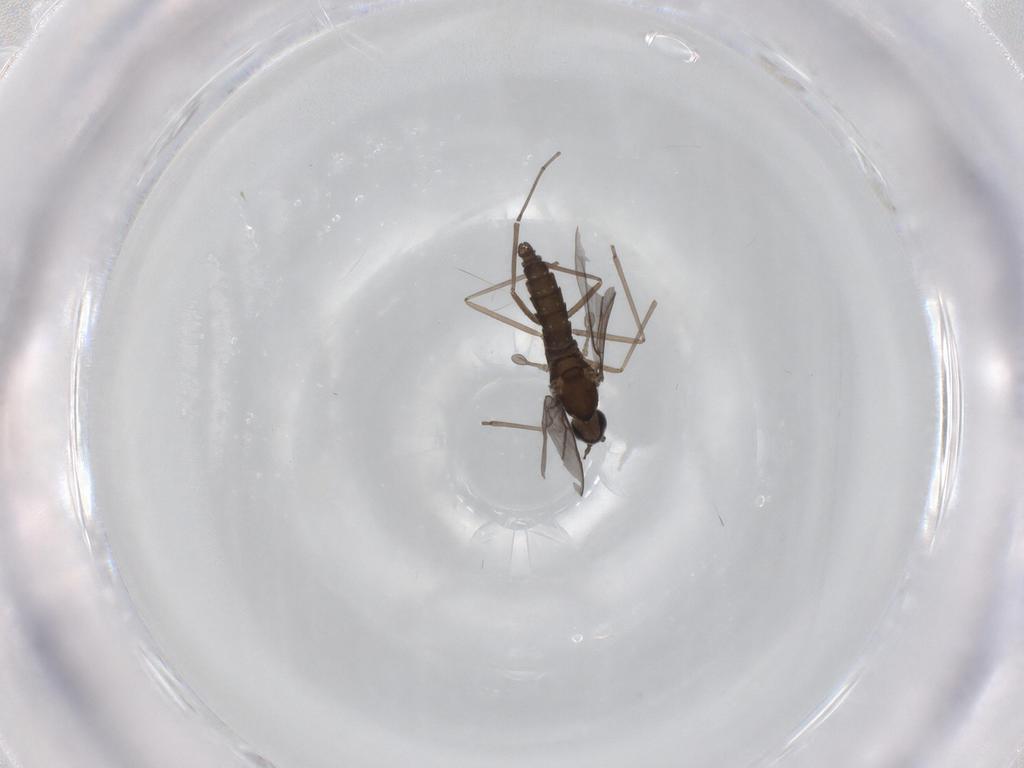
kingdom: Animalia
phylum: Arthropoda
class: Insecta
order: Diptera
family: Cecidomyiidae
